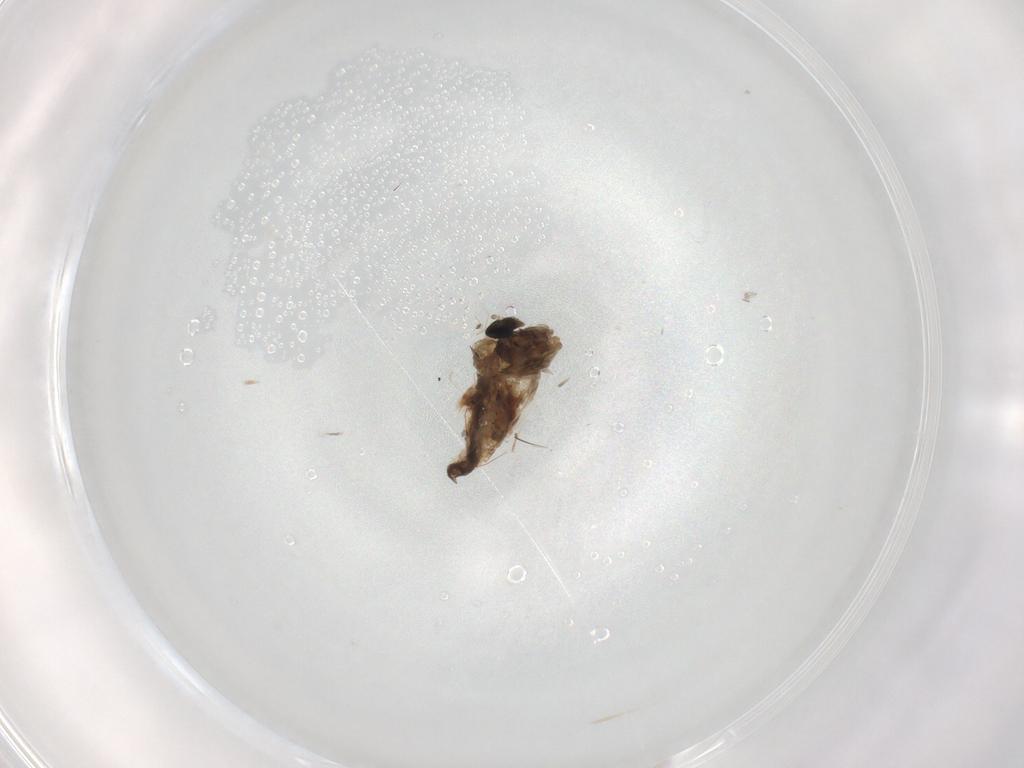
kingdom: Animalia
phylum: Arthropoda
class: Insecta
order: Diptera
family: Cecidomyiidae
